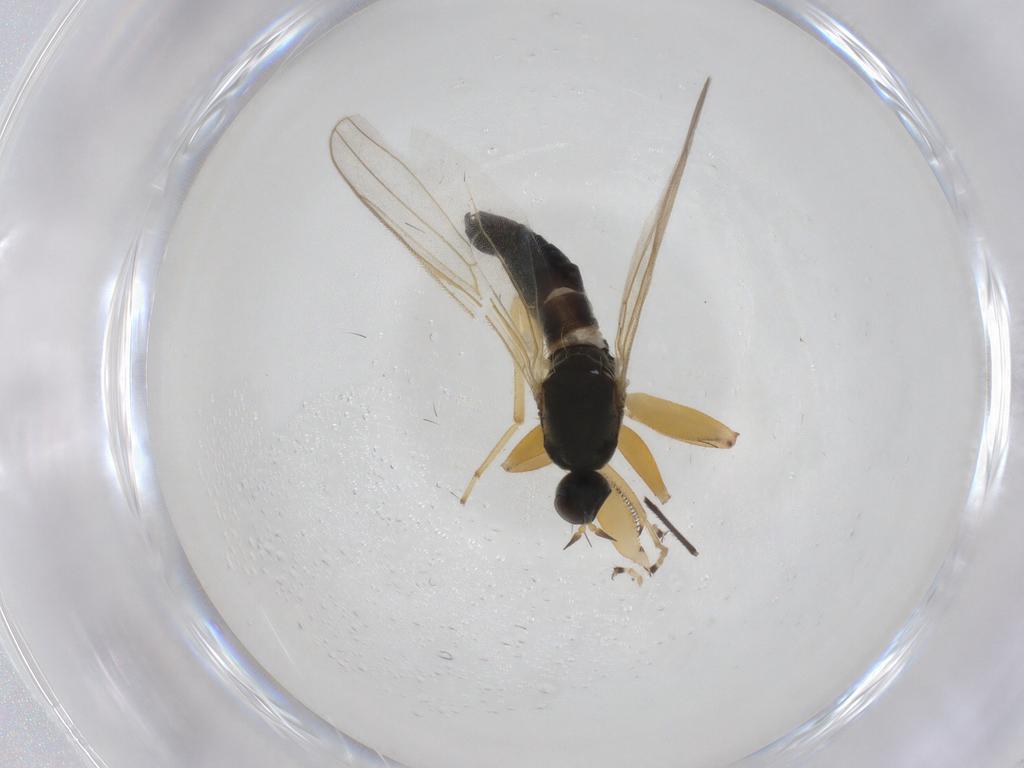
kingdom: Animalia
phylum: Arthropoda
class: Insecta
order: Diptera
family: Hybotidae
